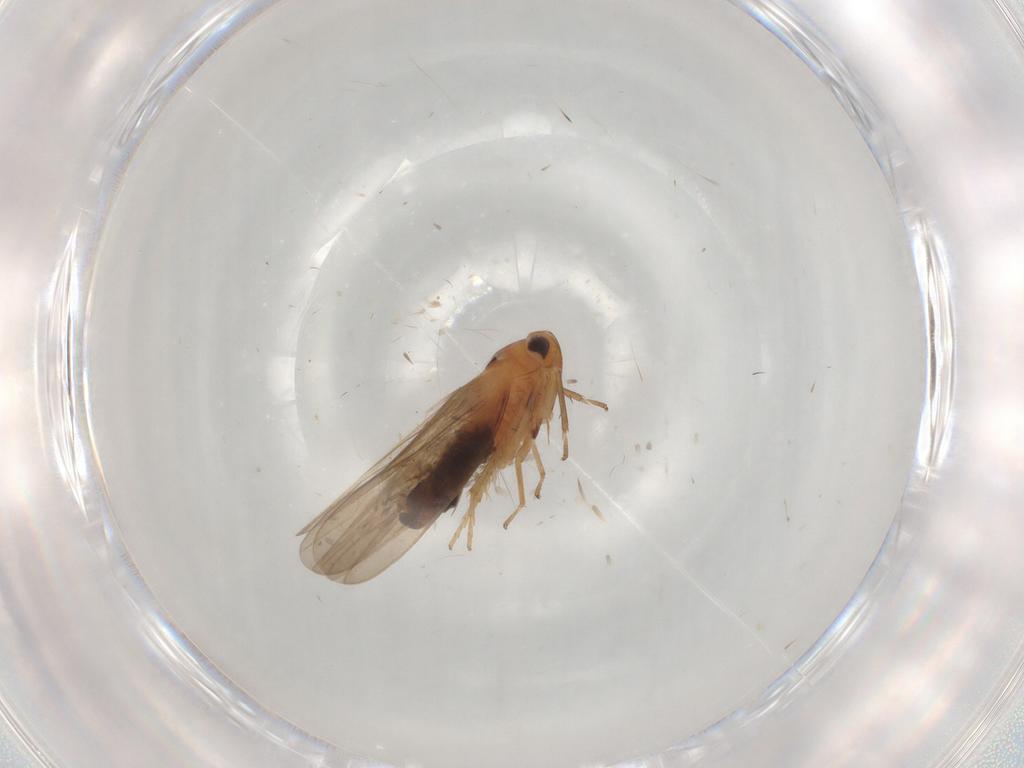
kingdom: Animalia
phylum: Arthropoda
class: Insecta
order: Hemiptera
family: Cicadellidae
